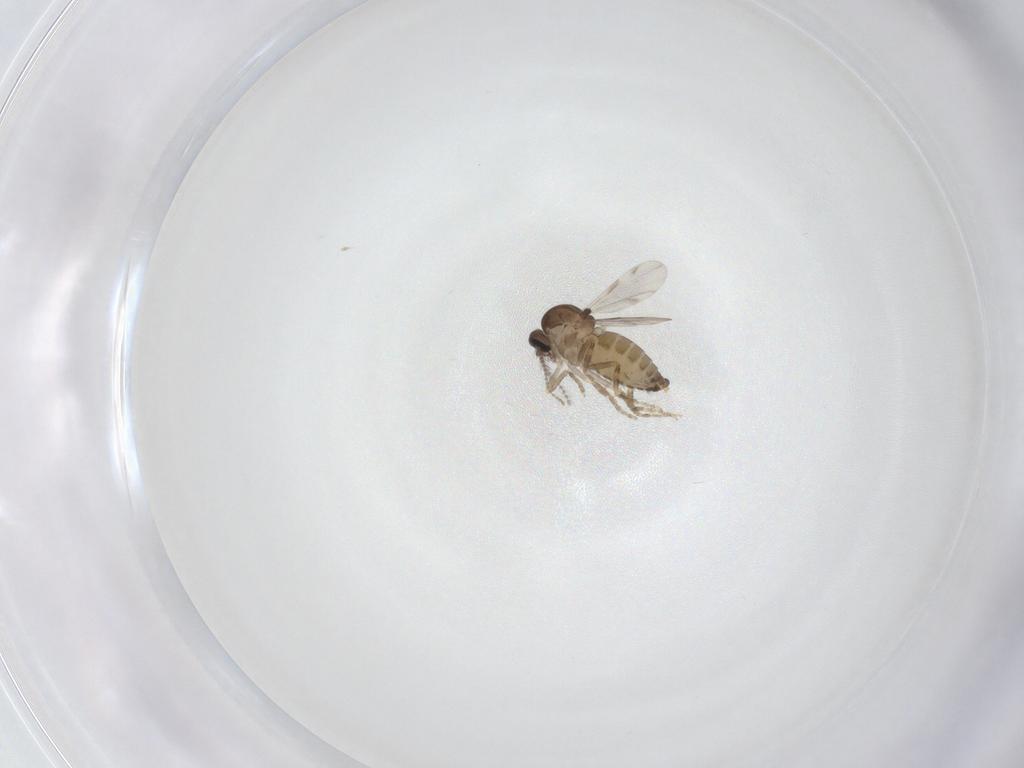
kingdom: Animalia
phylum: Arthropoda
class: Insecta
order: Diptera
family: Ceratopogonidae
